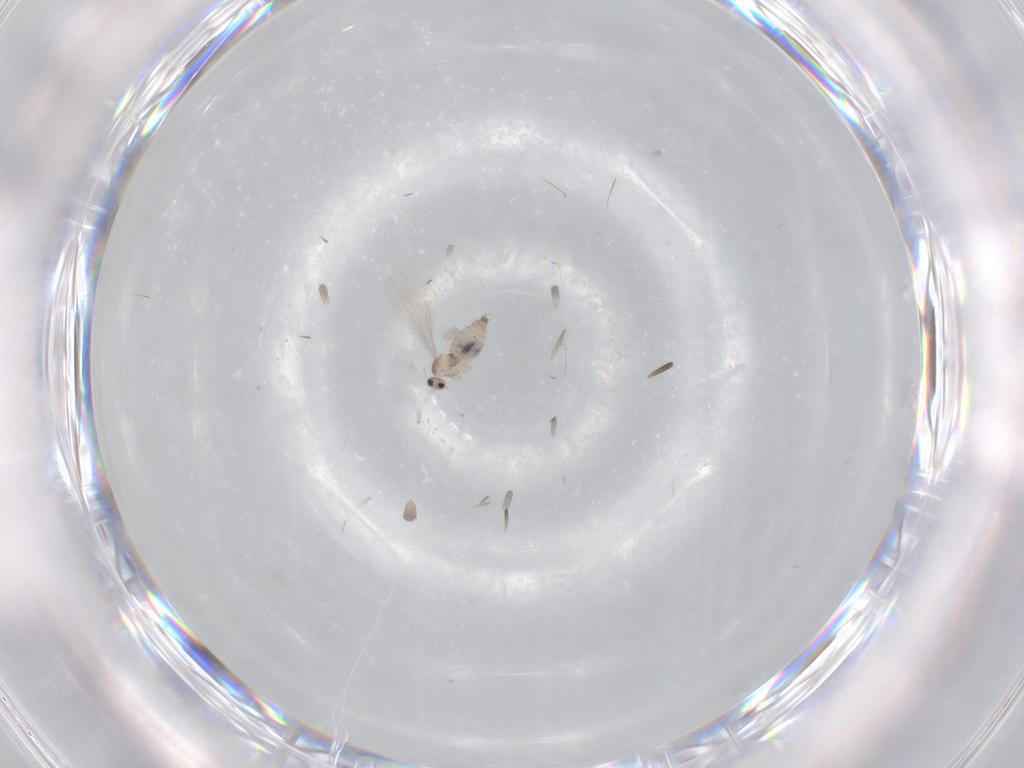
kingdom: Animalia
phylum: Arthropoda
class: Insecta
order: Diptera
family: Cecidomyiidae
